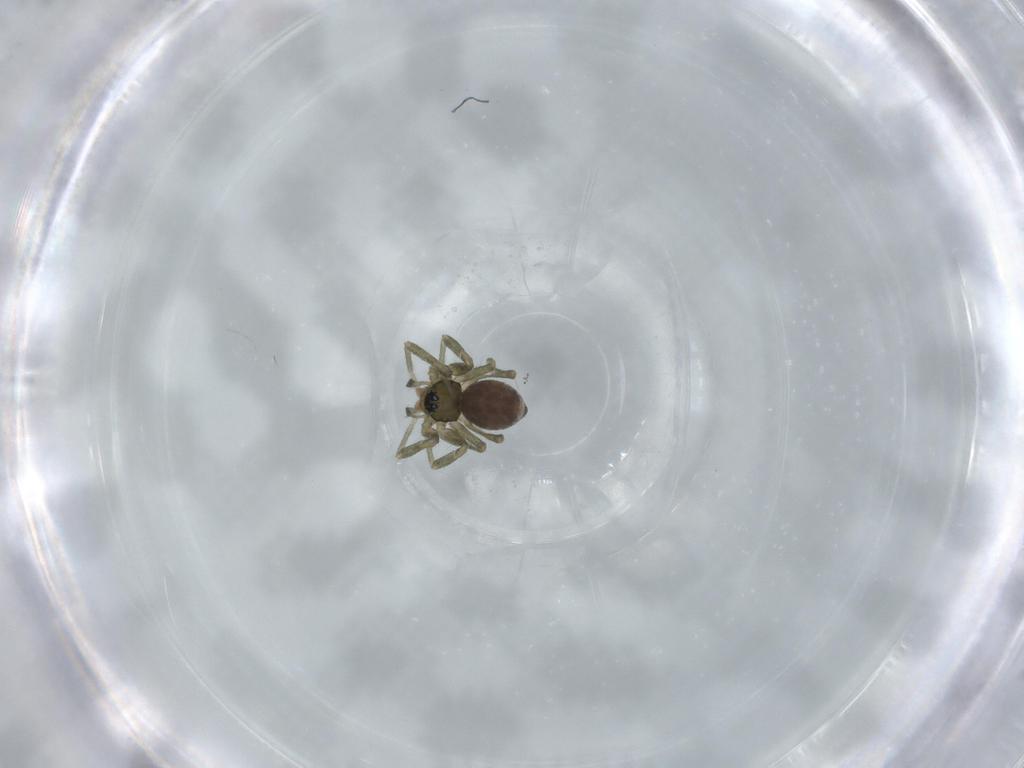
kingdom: Animalia
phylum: Arthropoda
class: Arachnida
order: Araneae
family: Linyphiidae
